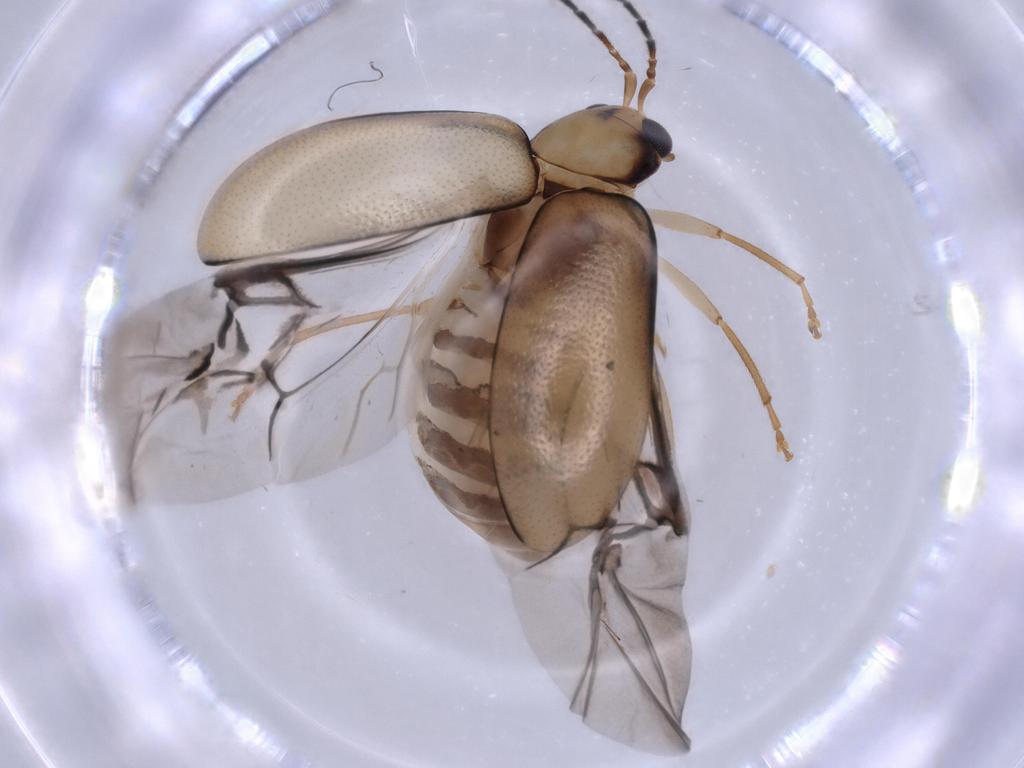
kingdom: Animalia
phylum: Arthropoda
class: Insecta
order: Coleoptera
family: Chrysomelidae
